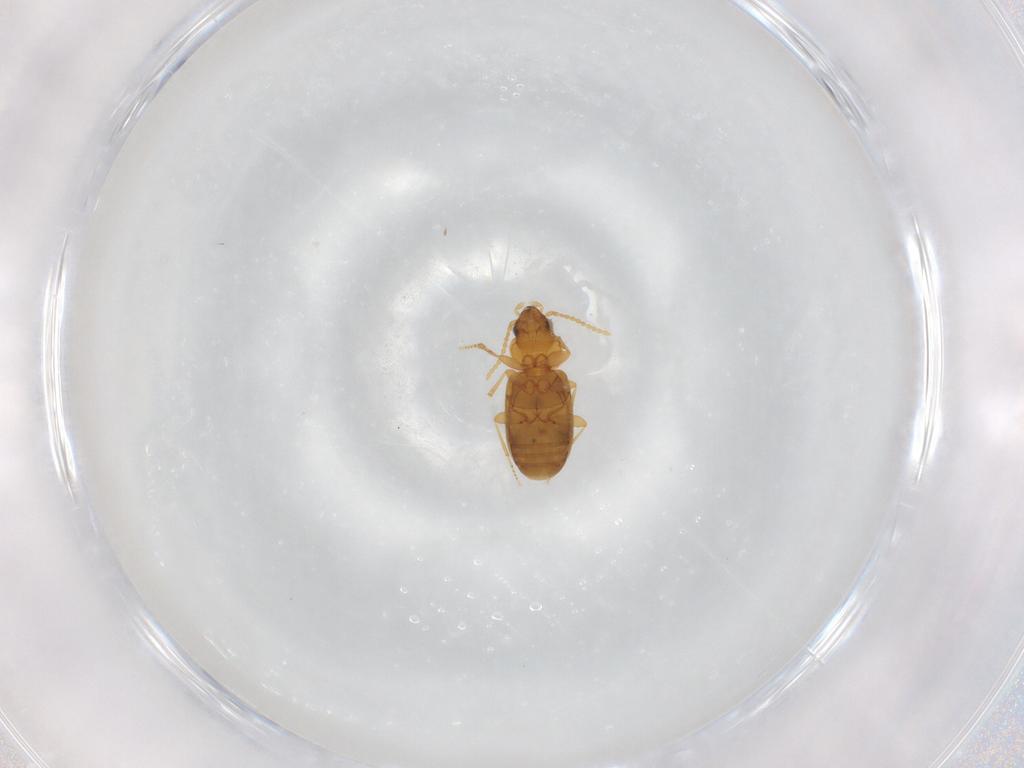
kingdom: Animalia
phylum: Arthropoda
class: Insecta
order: Coleoptera
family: Carabidae
